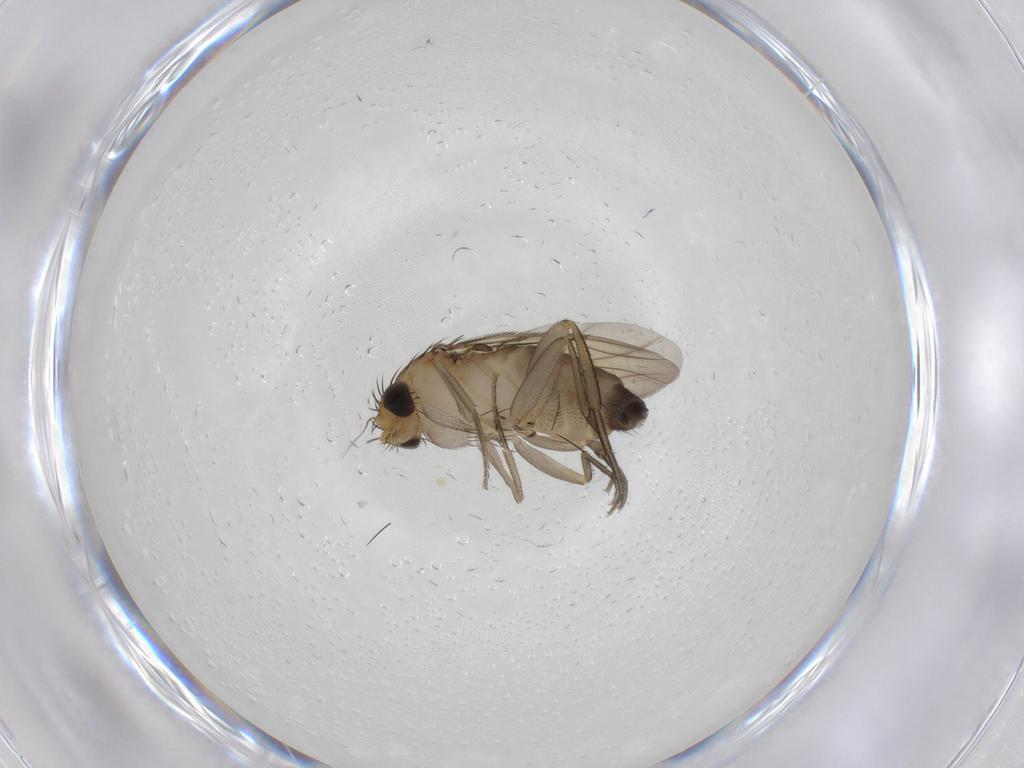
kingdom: Animalia
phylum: Arthropoda
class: Insecta
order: Diptera
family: Phoridae
